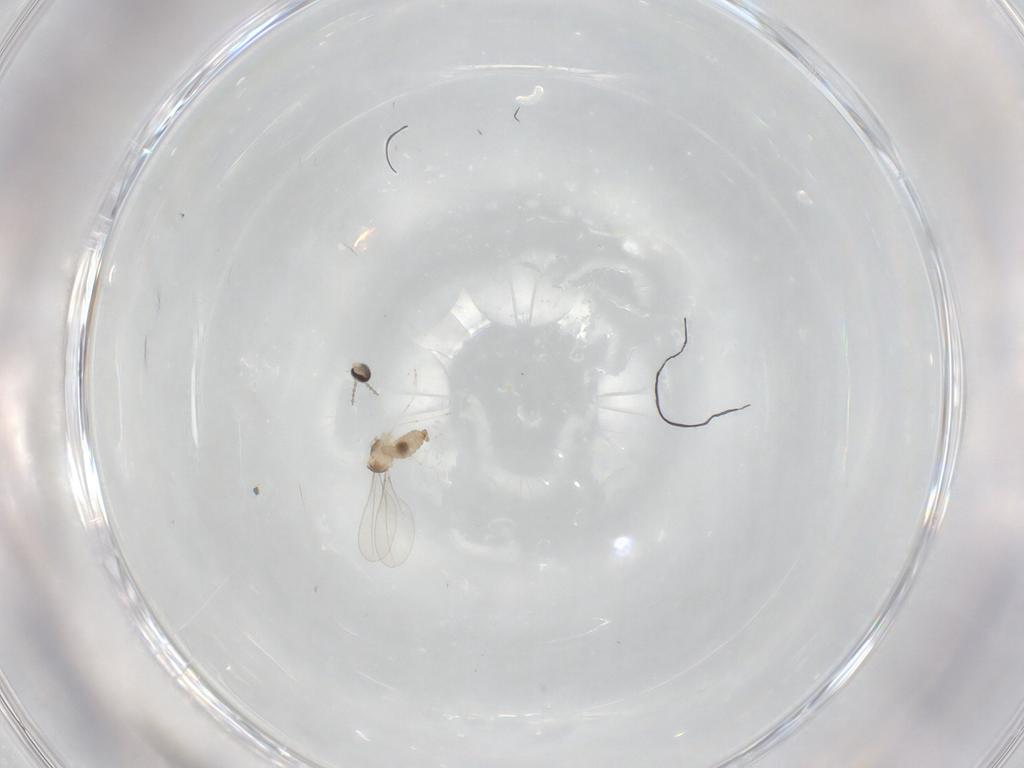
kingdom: Animalia
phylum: Arthropoda
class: Insecta
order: Diptera
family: Cecidomyiidae
